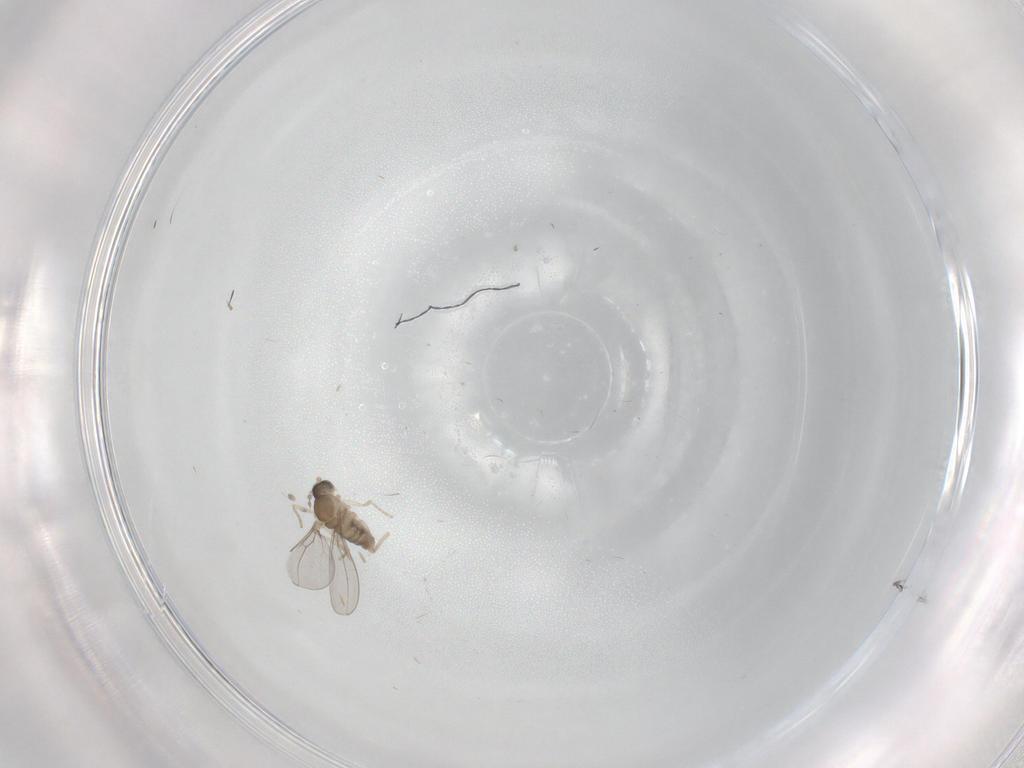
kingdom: Animalia
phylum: Arthropoda
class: Insecta
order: Diptera
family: Cecidomyiidae
